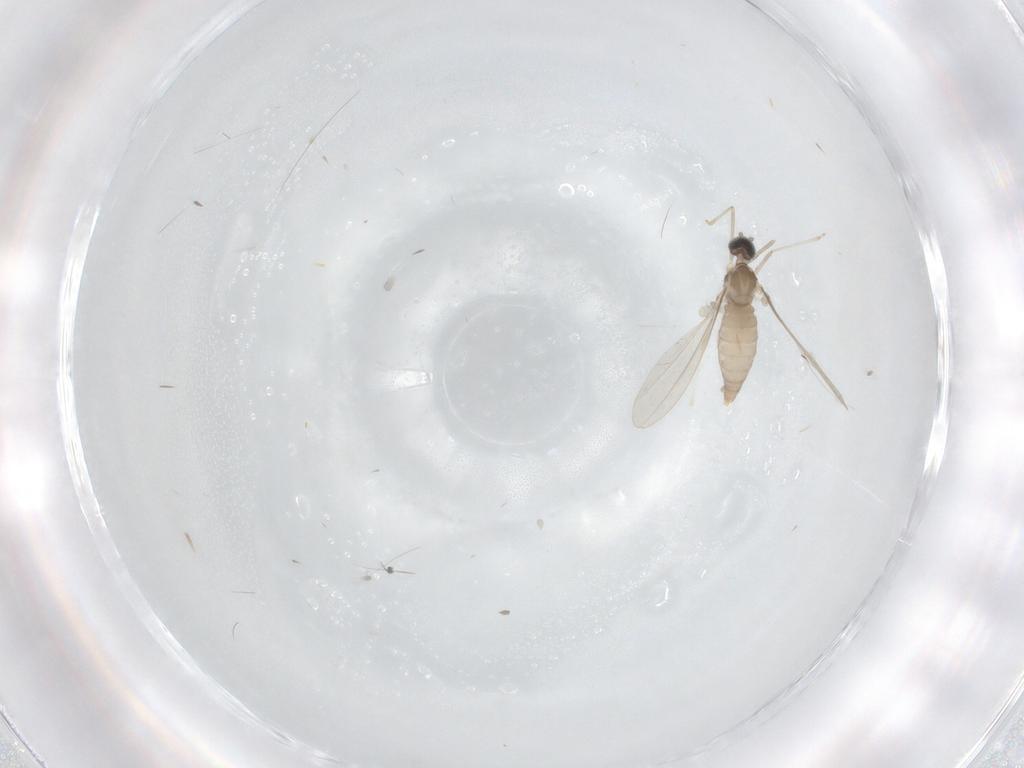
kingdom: Animalia
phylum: Arthropoda
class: Insecta
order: Diptera
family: Cecidomyiidae
